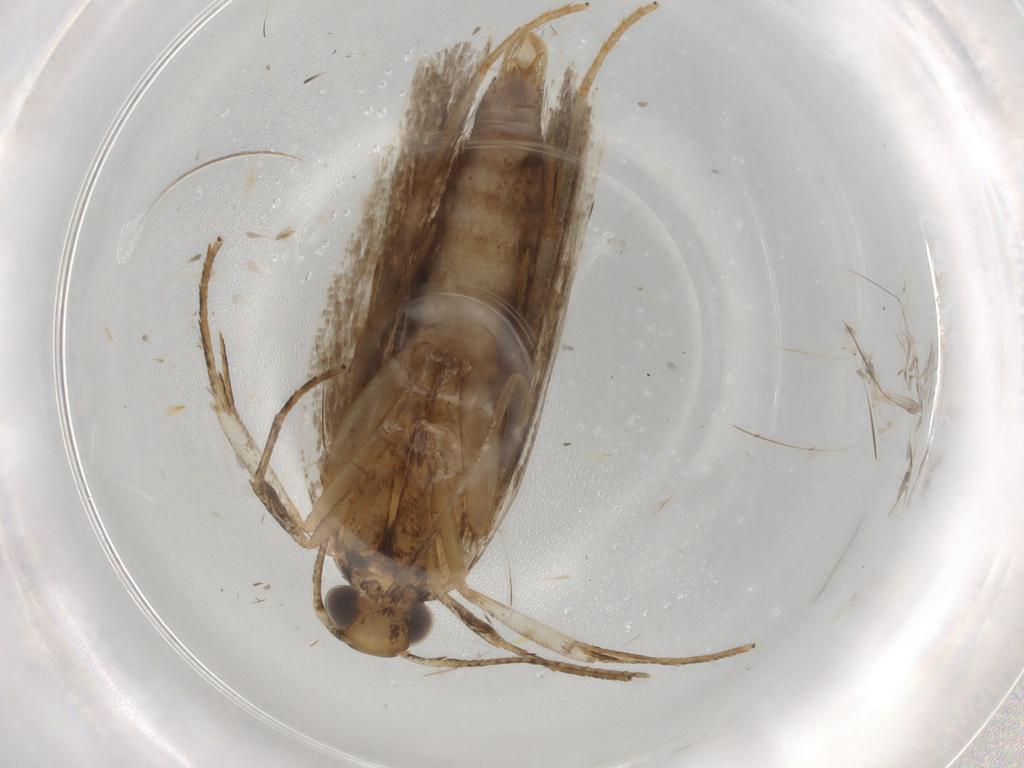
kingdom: Animalia
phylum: Arthropoda
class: Insecta
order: Lepidoptera
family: Pieridae
